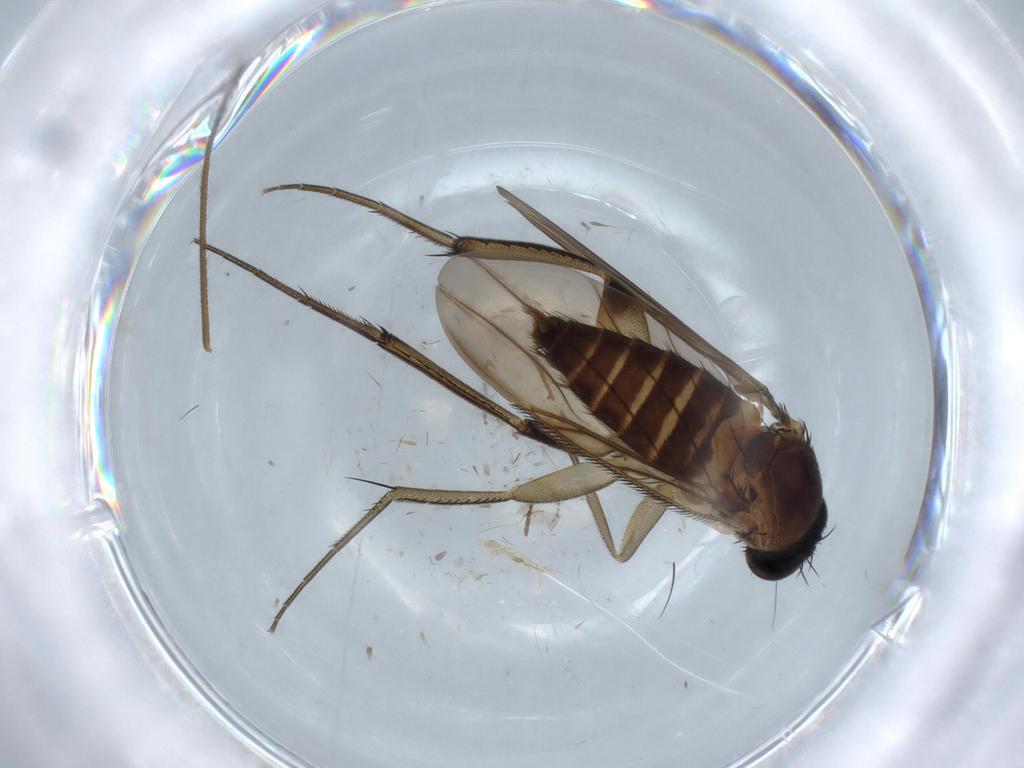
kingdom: Animalia
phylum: Arthropoda
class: Insecta
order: Diptera
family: Phoridae
